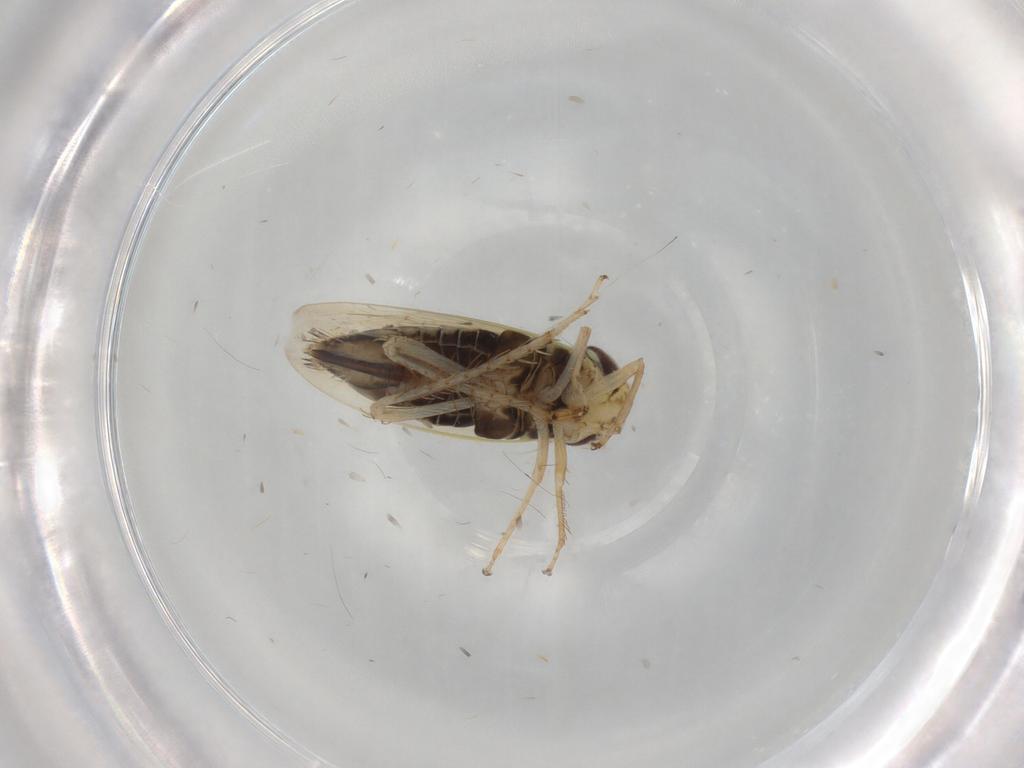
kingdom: Animalia
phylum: Arthropoda
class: Insecta
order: Hemiptera
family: Cicadellidae
